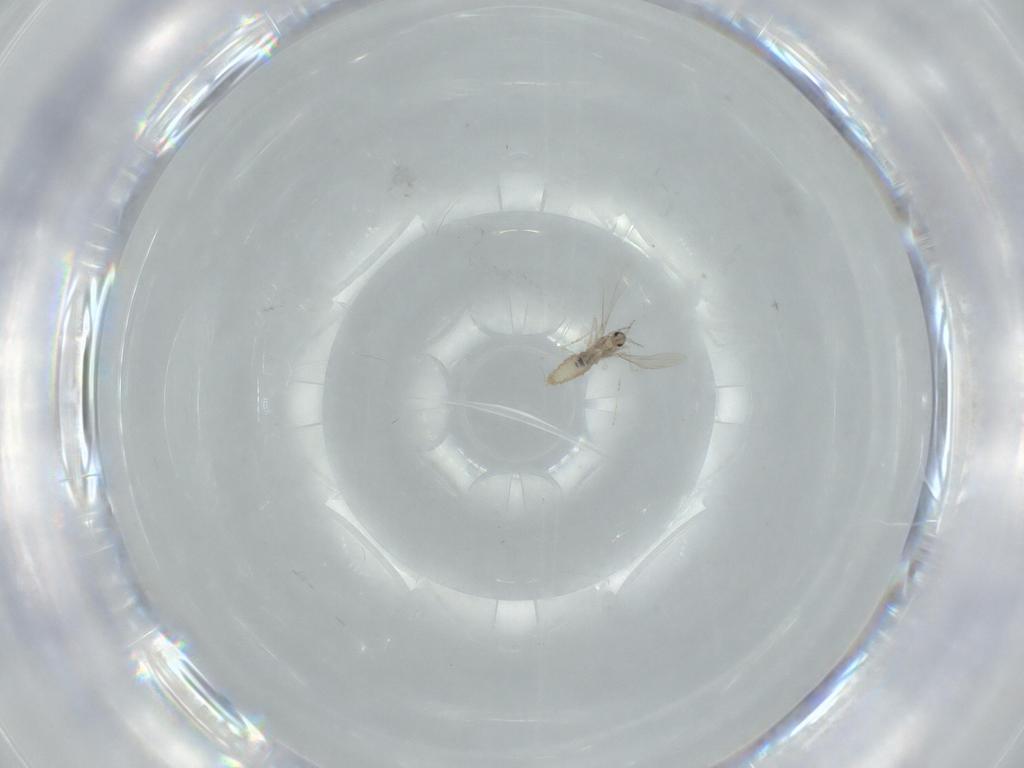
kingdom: Animalia
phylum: Arthropoda
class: Insecta
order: Diptera
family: Cecidomyiidae
